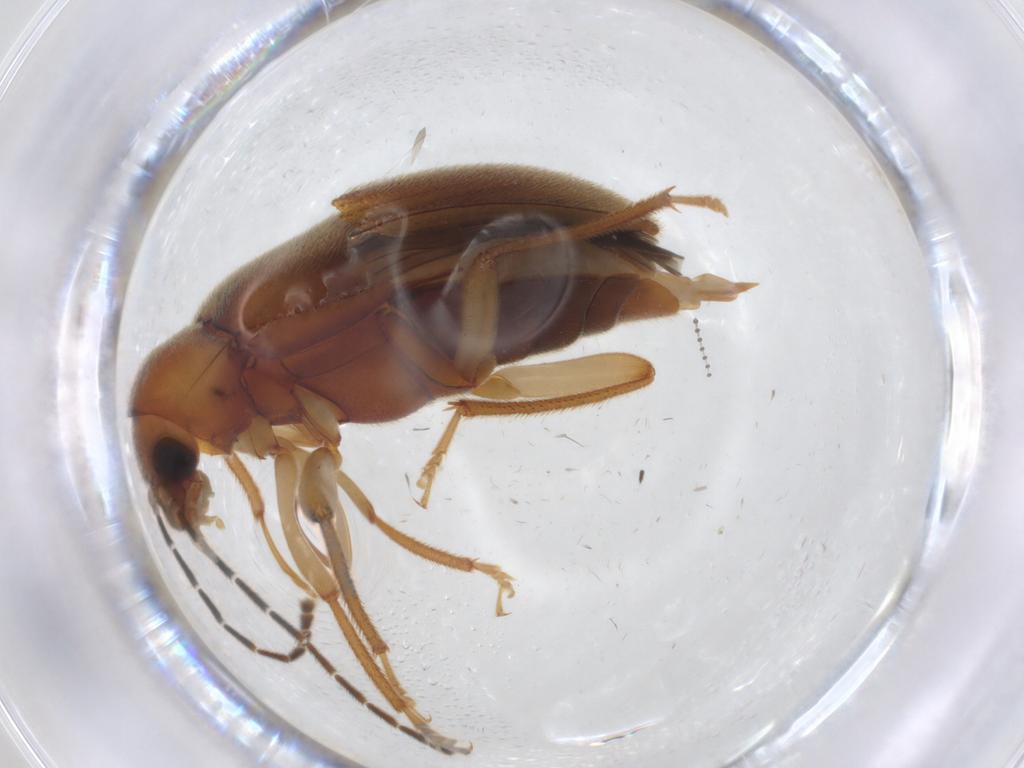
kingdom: Animalia
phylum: Arthropoda
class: Insecta
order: Coleoptera
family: Ptilodactylidae
